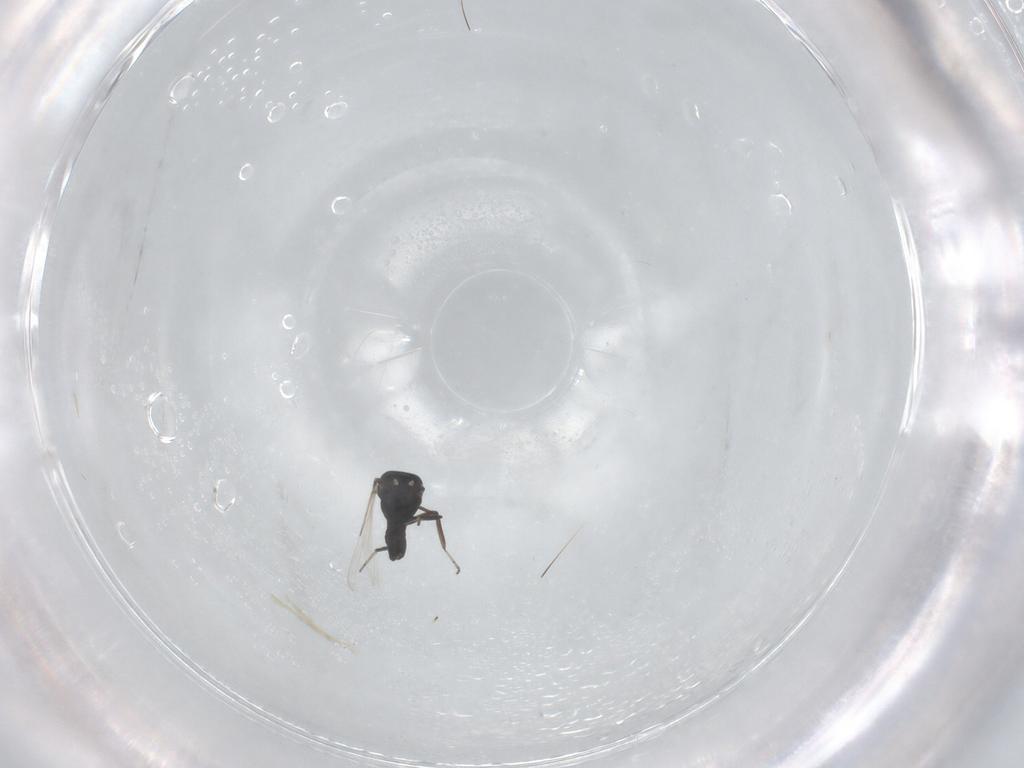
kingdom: Animalia
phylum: Arthropoda
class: Insecta
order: Diptera
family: Ceratopogonidae
